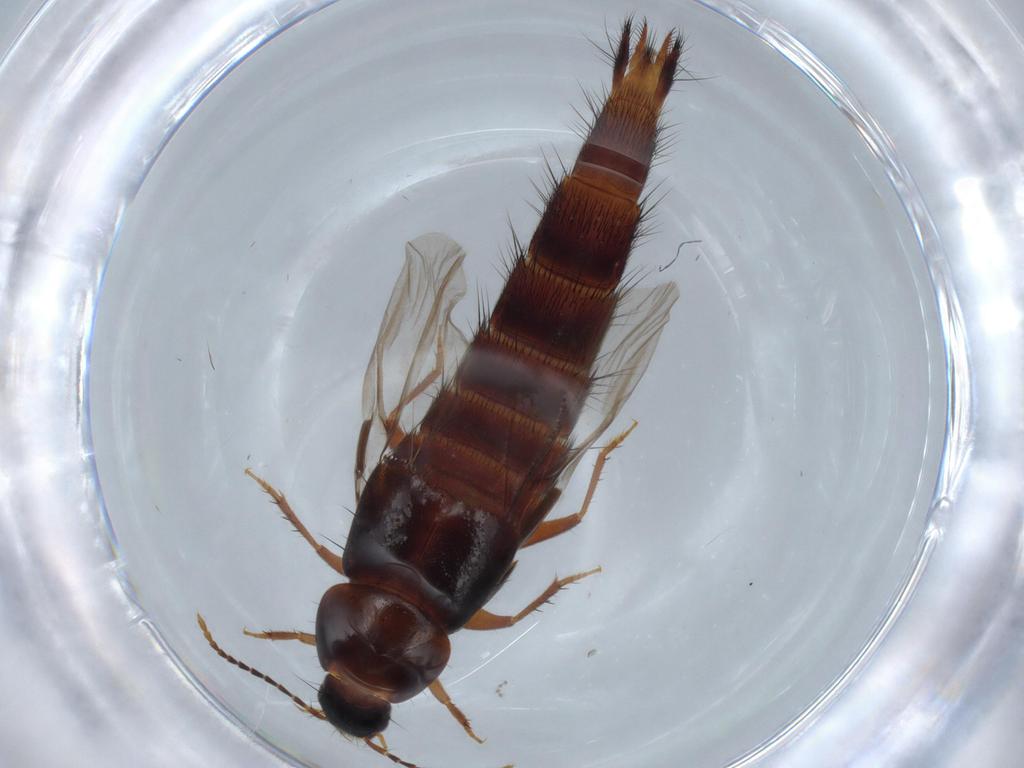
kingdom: Animalia
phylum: Arthropoda
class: Insecta
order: Coleoptera
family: Staphylinidae
